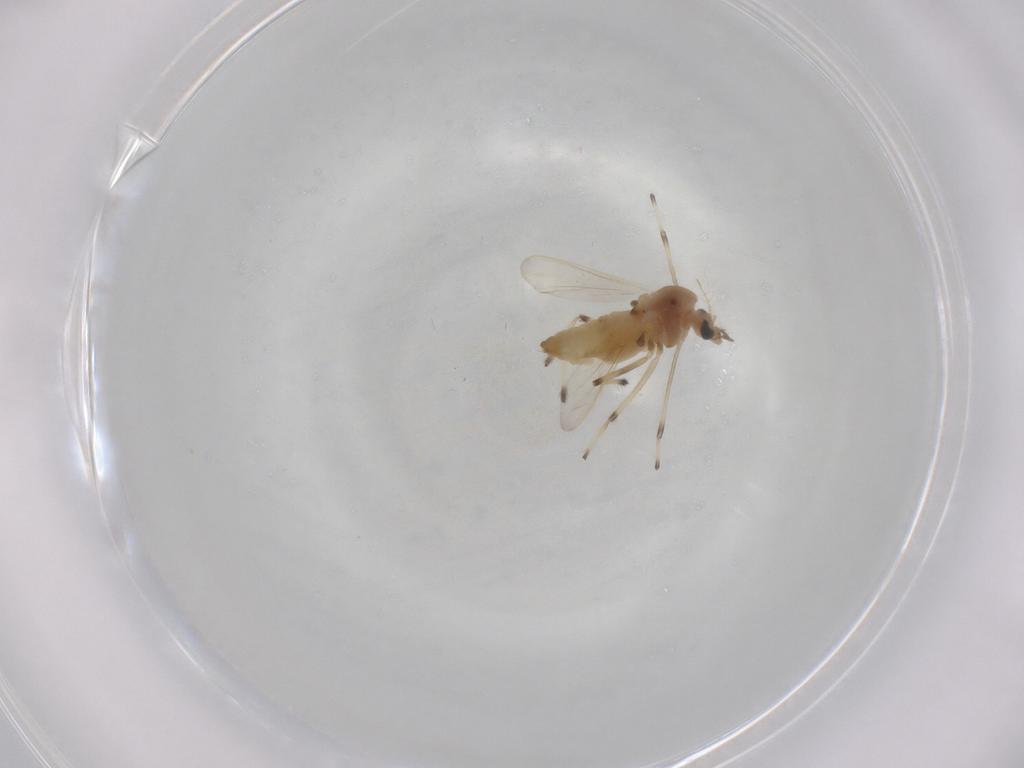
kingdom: Animalia
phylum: Arthropoda
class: Insecta
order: Diptera
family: Chironomidae
